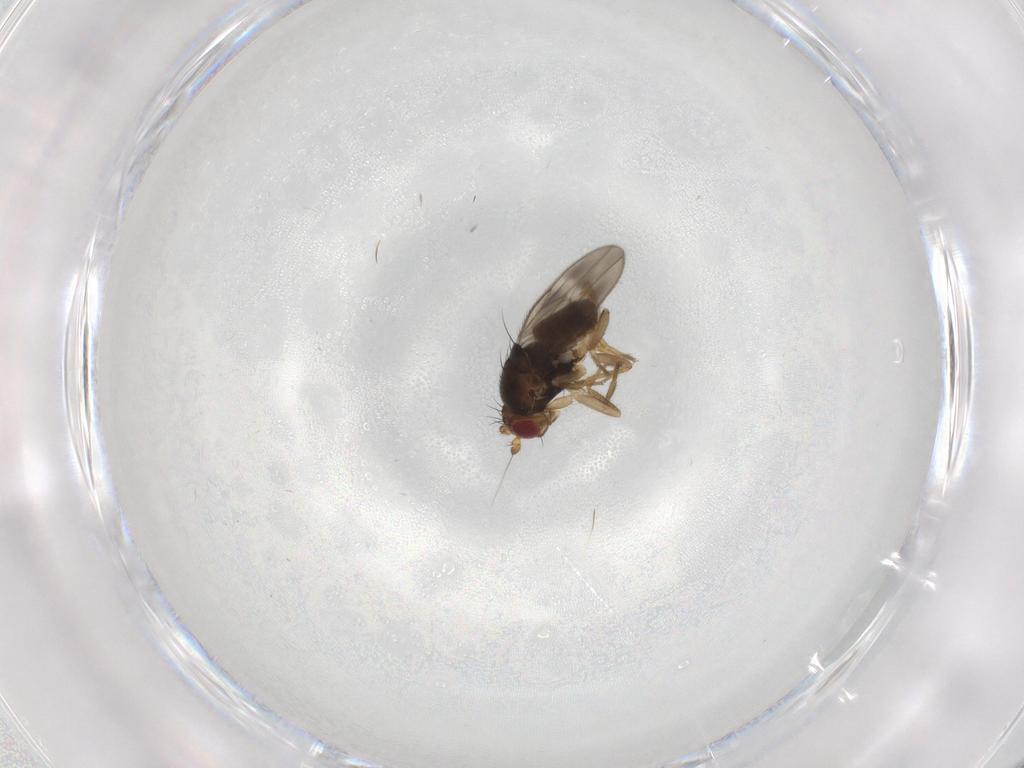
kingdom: Animalia
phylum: Arthropoda
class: Insecta
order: Diptera
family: Sphaeroceridae
